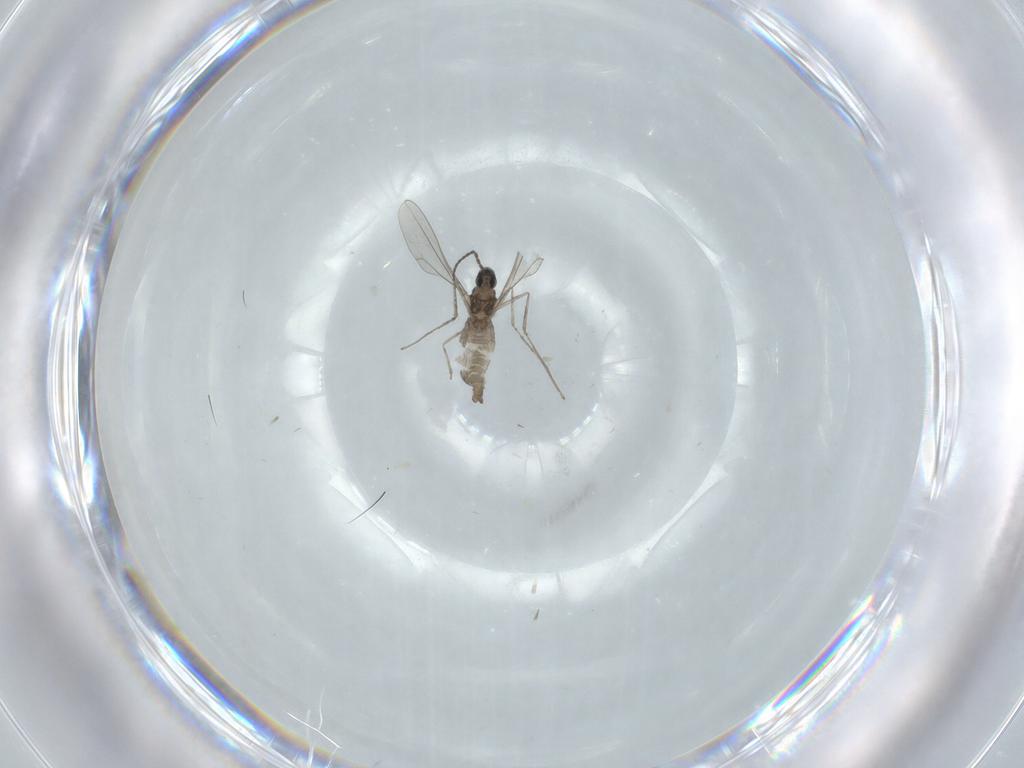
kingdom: Animalia
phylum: Arthropoda
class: Insecta
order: Diptera
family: Cecidomyiidae
